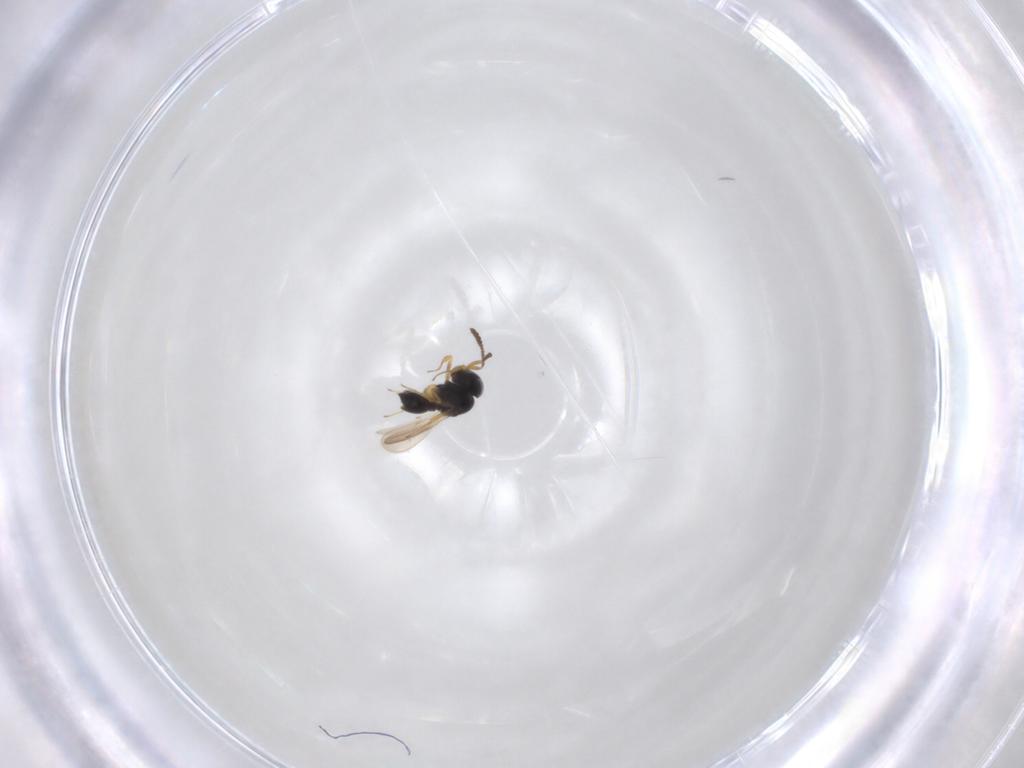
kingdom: Animalia
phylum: Arthropoda
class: Insecta
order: Hymenoptera
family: Scelionidae
